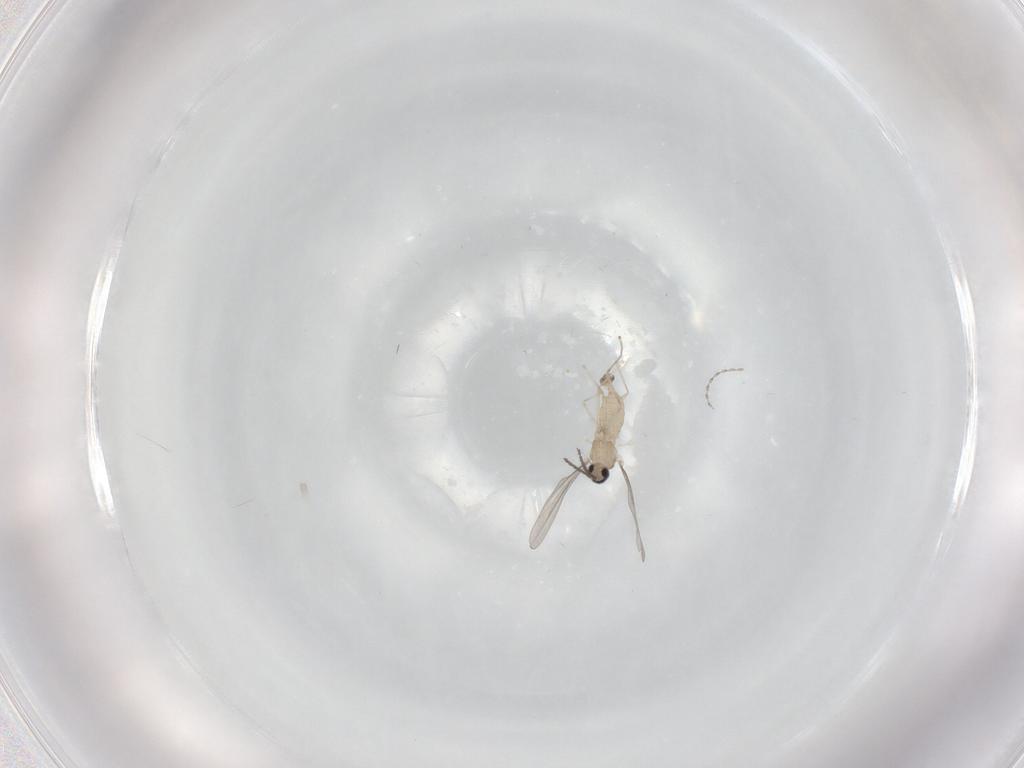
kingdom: Animalia
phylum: Arthropoda
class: Insecta
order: Diptera
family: Cecidomyiidae
